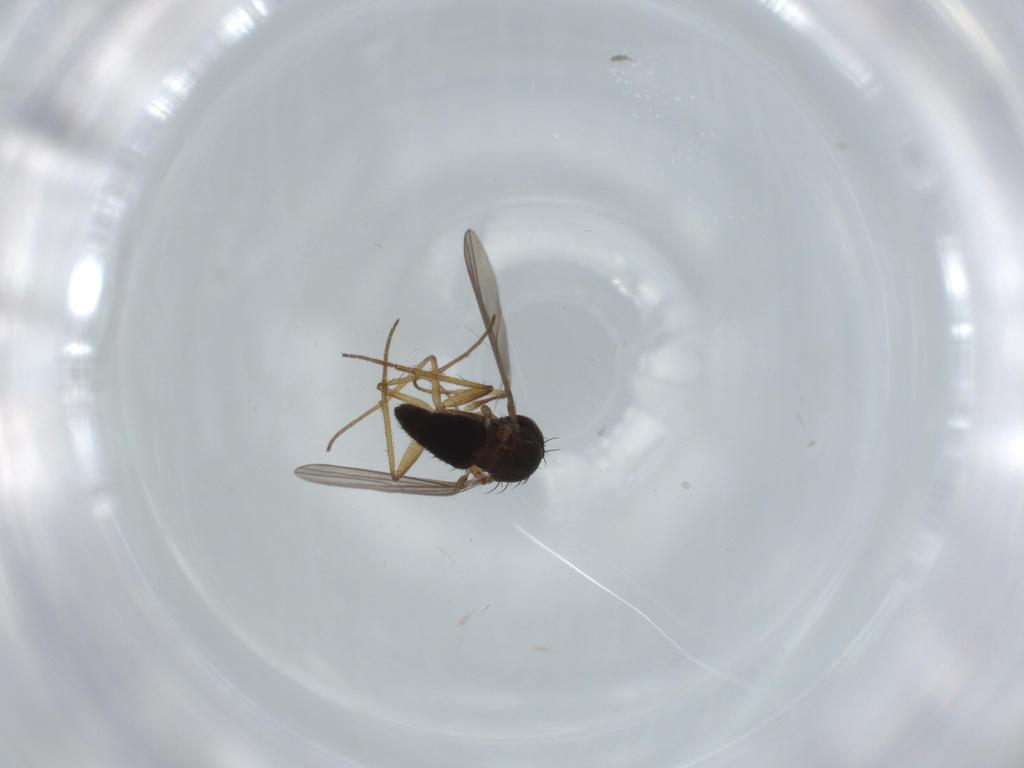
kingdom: Animalia
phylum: Arthropoda
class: Insecta
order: Diptera
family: Dolichopodidae
